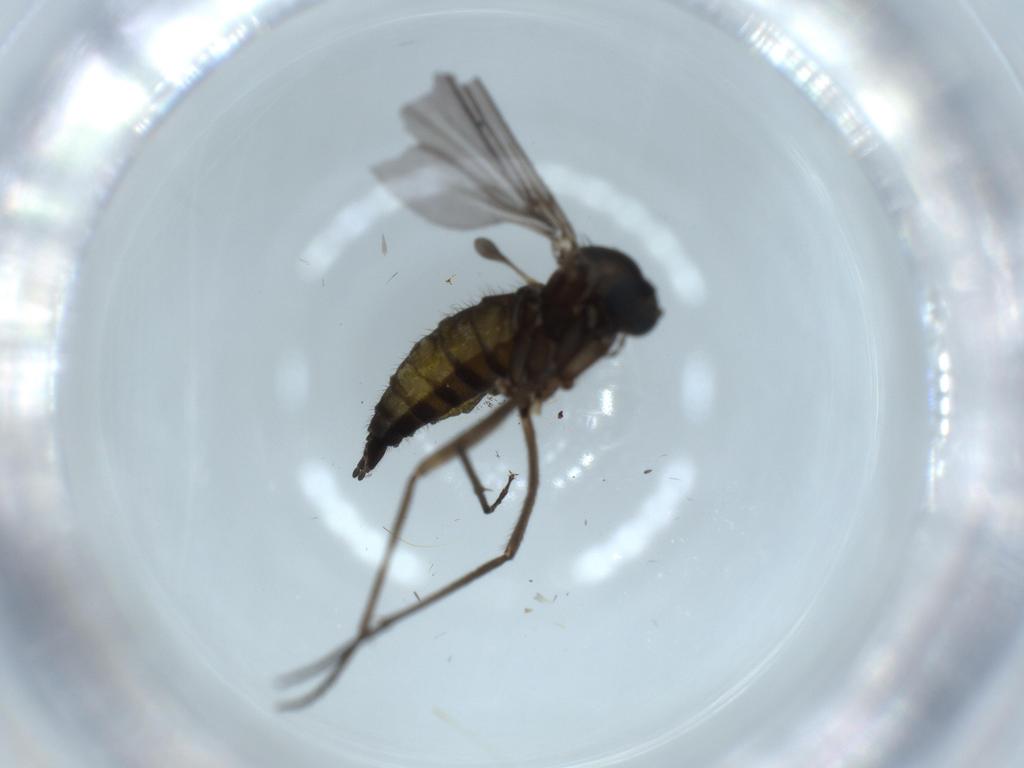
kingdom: Animalia
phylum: Arthropoda
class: Insecta
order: Diptera
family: Sciaridae
